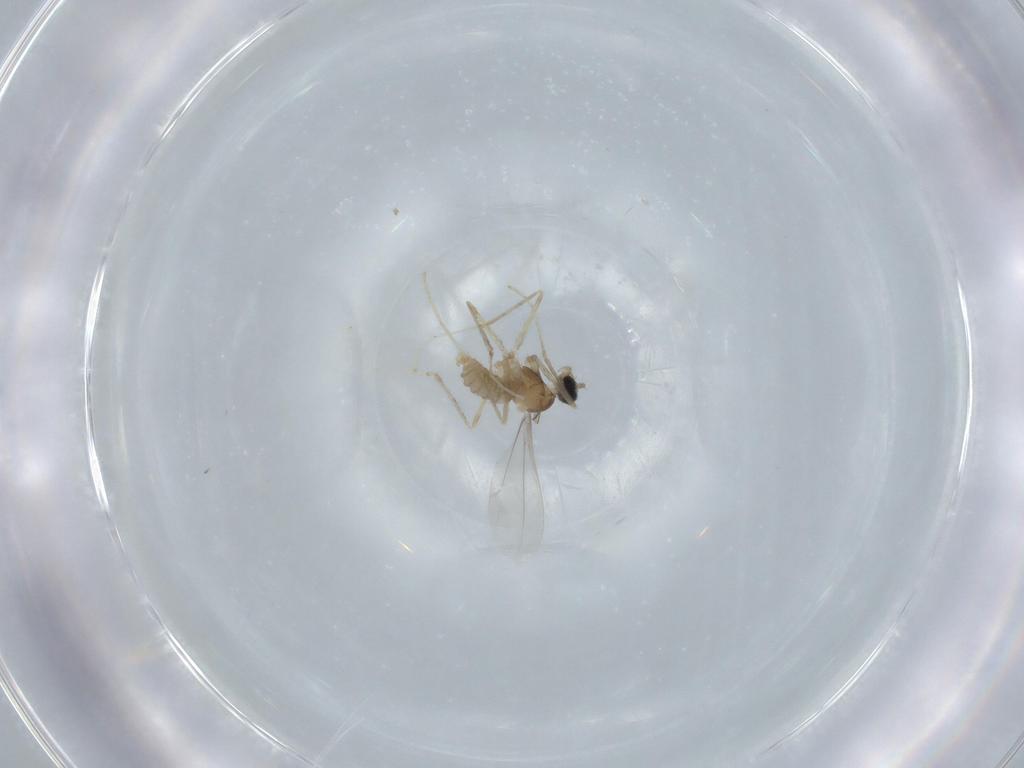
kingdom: Animalia
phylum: Arthropoda
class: Insecta
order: Diptera
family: Cecidomyiidae
